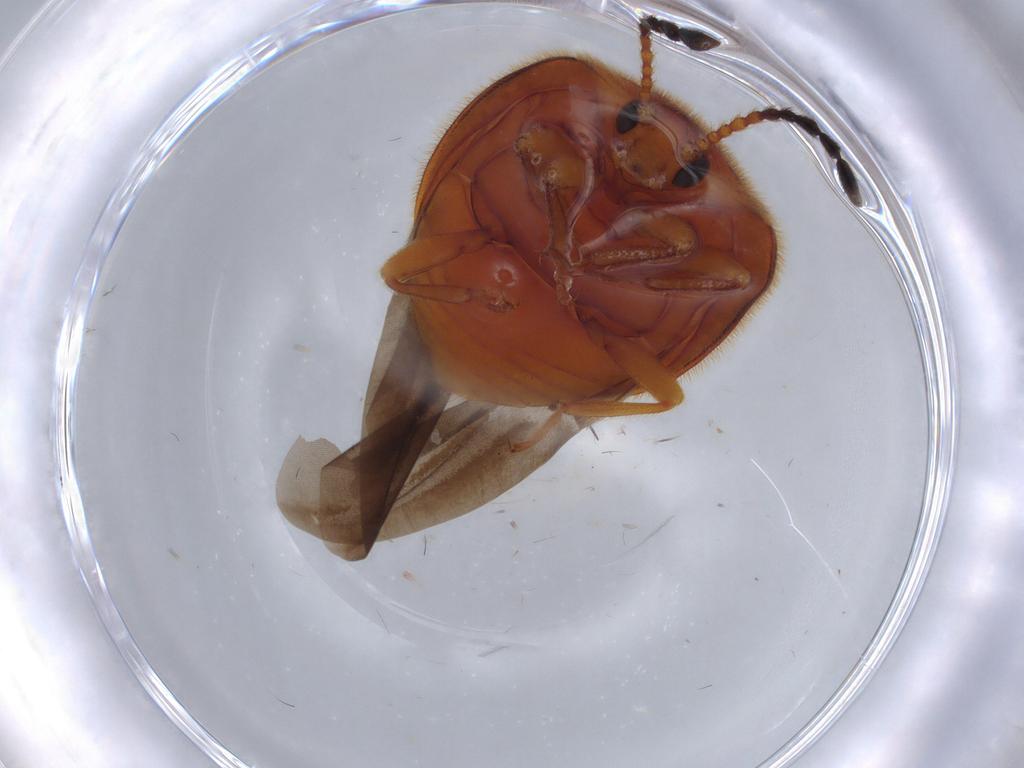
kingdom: Animalia
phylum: Arthropoda
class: Insecta
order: Coleoptera
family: Endomychidae
